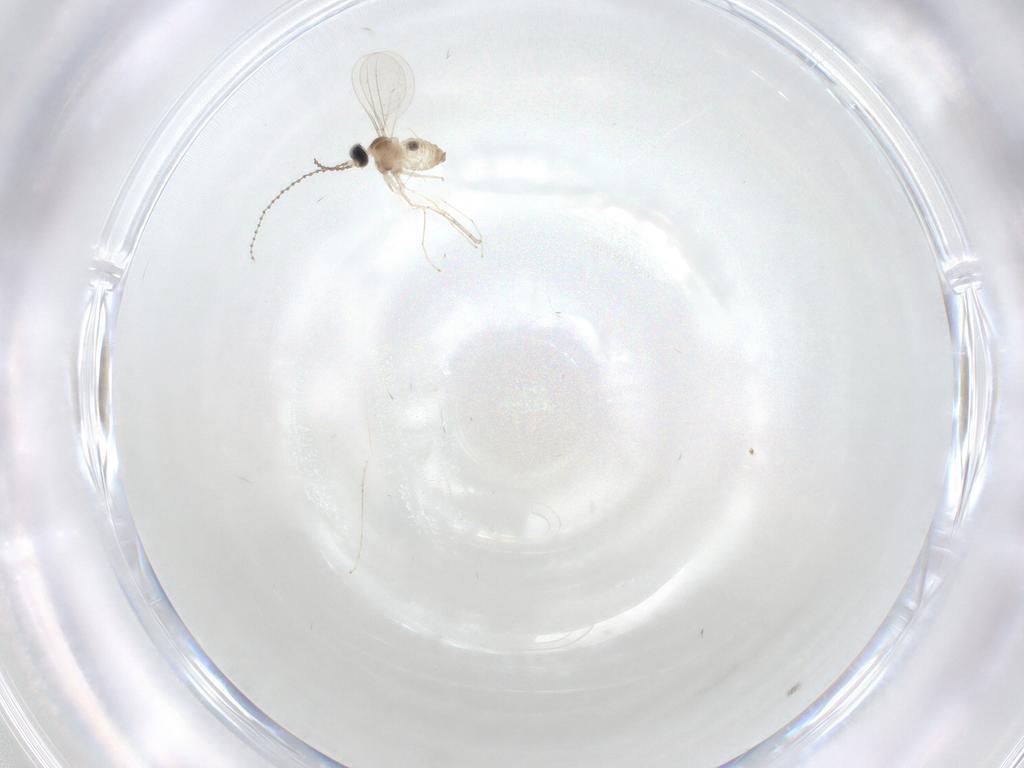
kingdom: Animalia
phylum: Arthropoda
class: Insecta
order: Diptera
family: Cecidomyiidae
